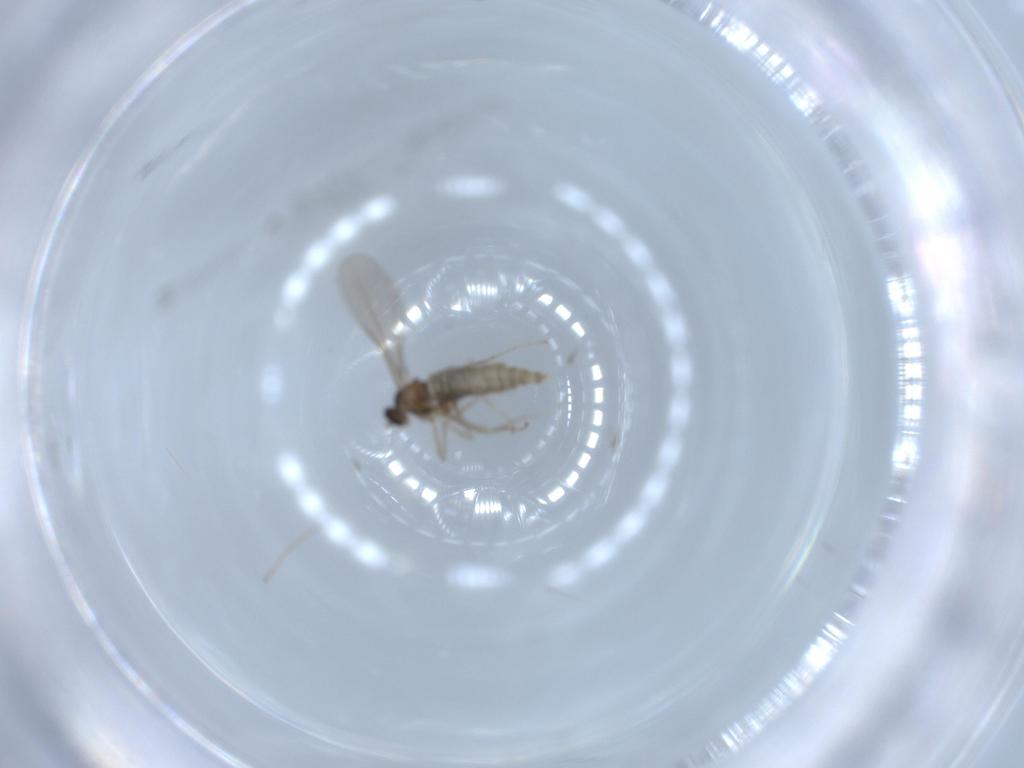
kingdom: Animalia
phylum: Arthropoda
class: Insecta
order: Diptera
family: Cecidomyiidae
